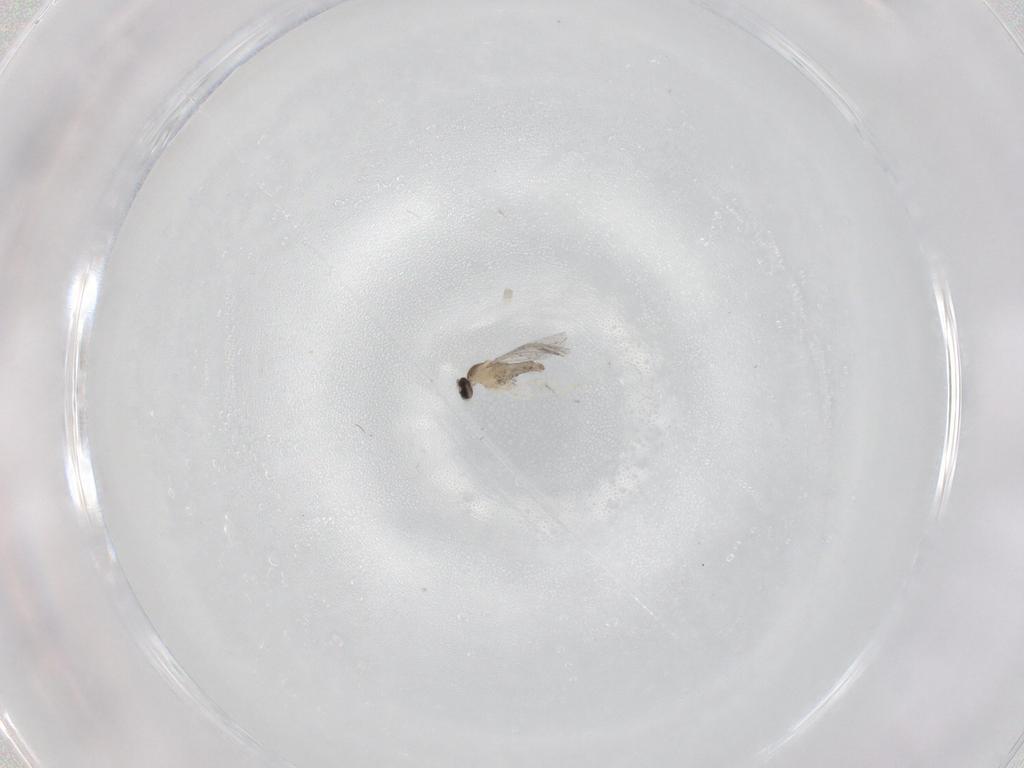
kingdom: Animalia
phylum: Arthropoda
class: Insecta
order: Diptera
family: Cecidomyiidae
